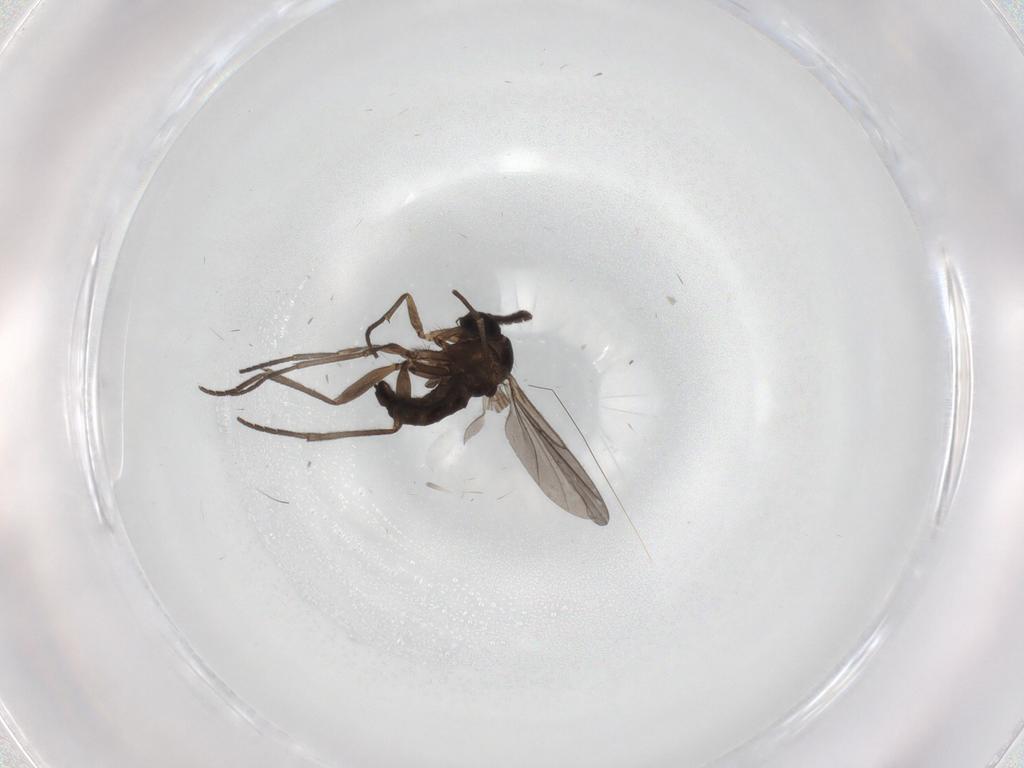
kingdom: Animalia
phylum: Arthropoda
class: Insecta
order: Diptera
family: Sciaridae
